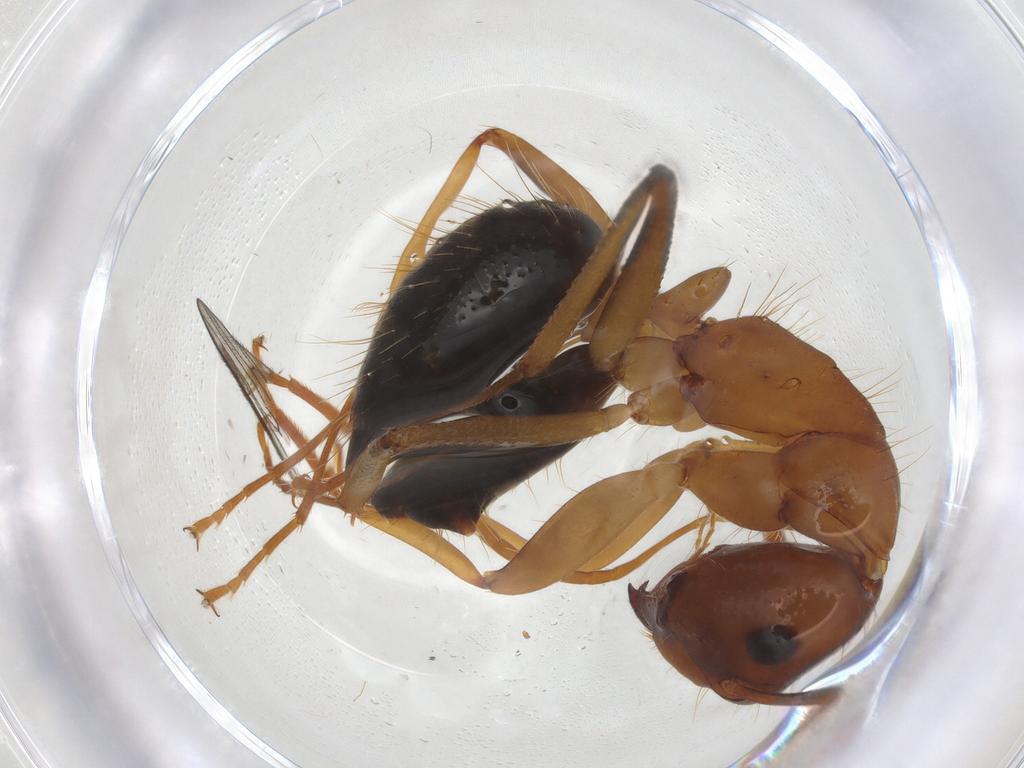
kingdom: Animalia
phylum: Arthropoda
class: Insecta
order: Hymenoptera
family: Formicidae
